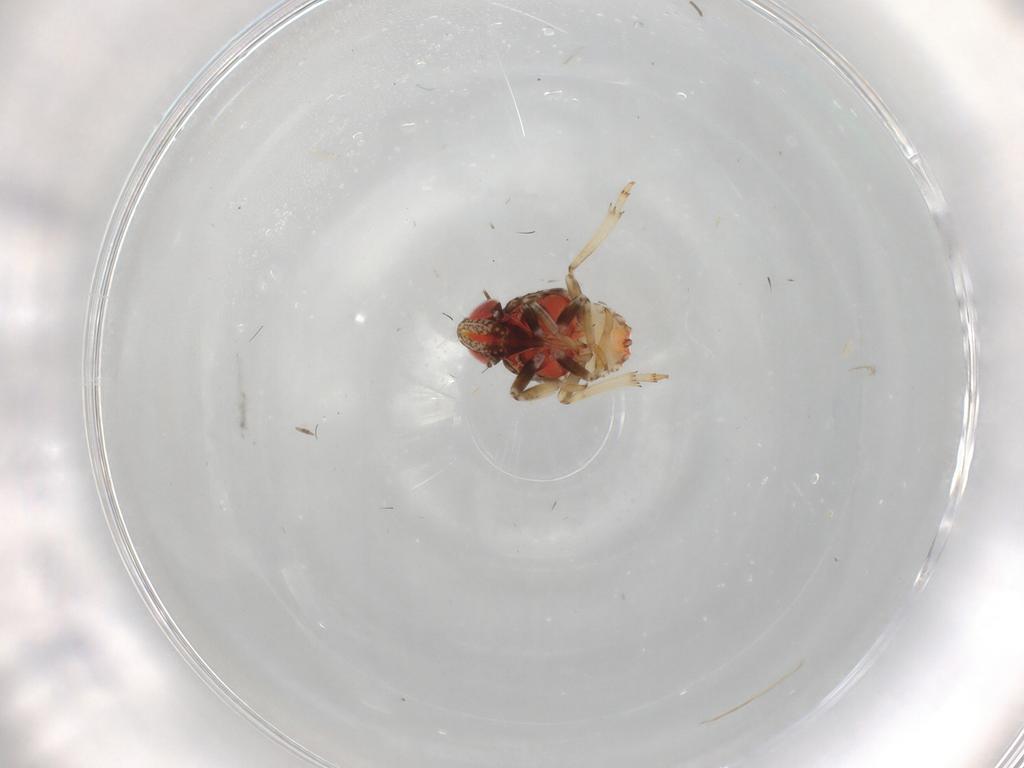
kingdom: Animalia
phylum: Arthropoda
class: Insecta
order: Hemiptera
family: Issidae
